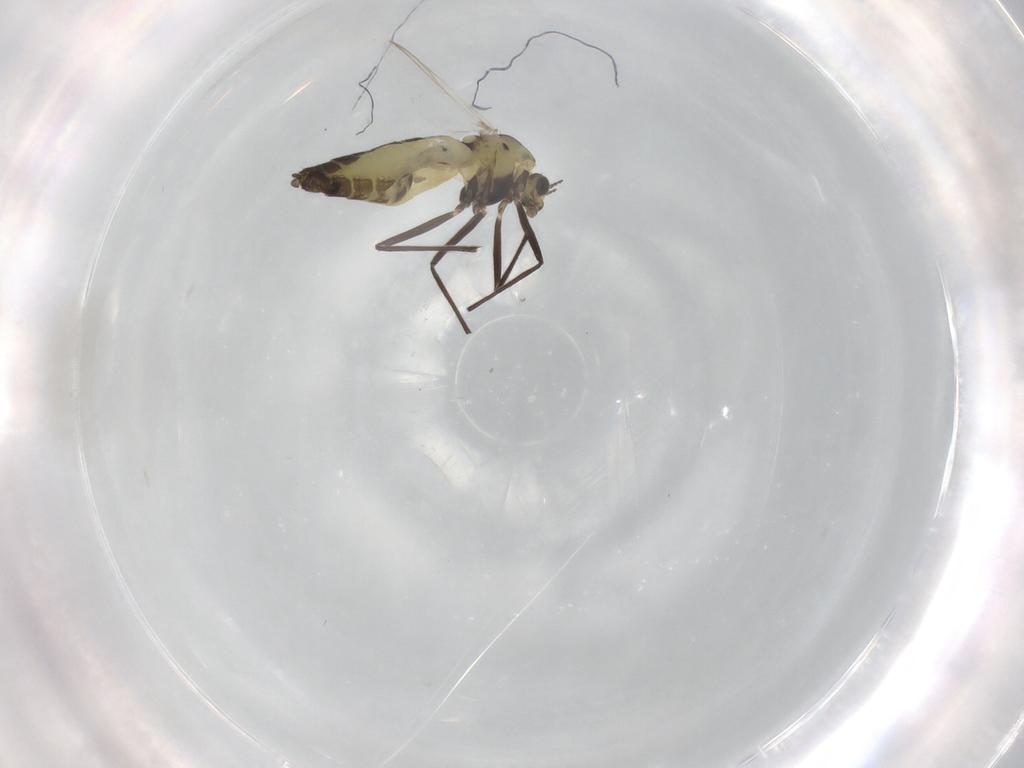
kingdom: Animalia
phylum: Arthropoda
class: Insecta
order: Diptera
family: Chironomidae
